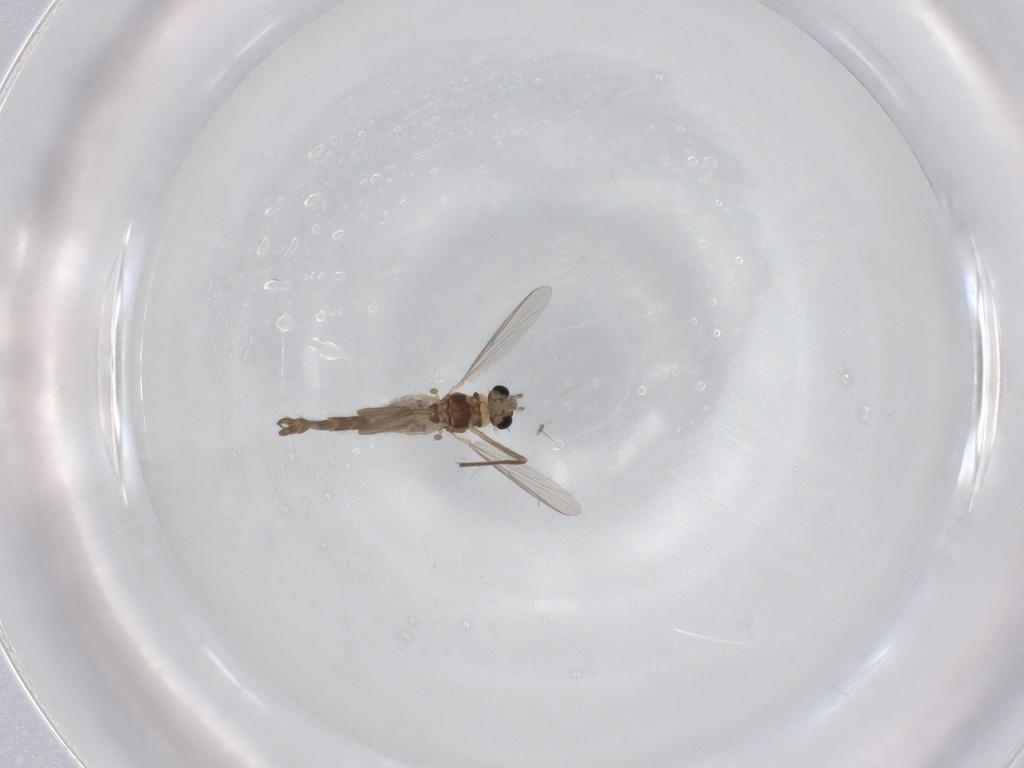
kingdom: Animalia
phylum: Arthropoda
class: Insecta
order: Diptera
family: Chironomidae
